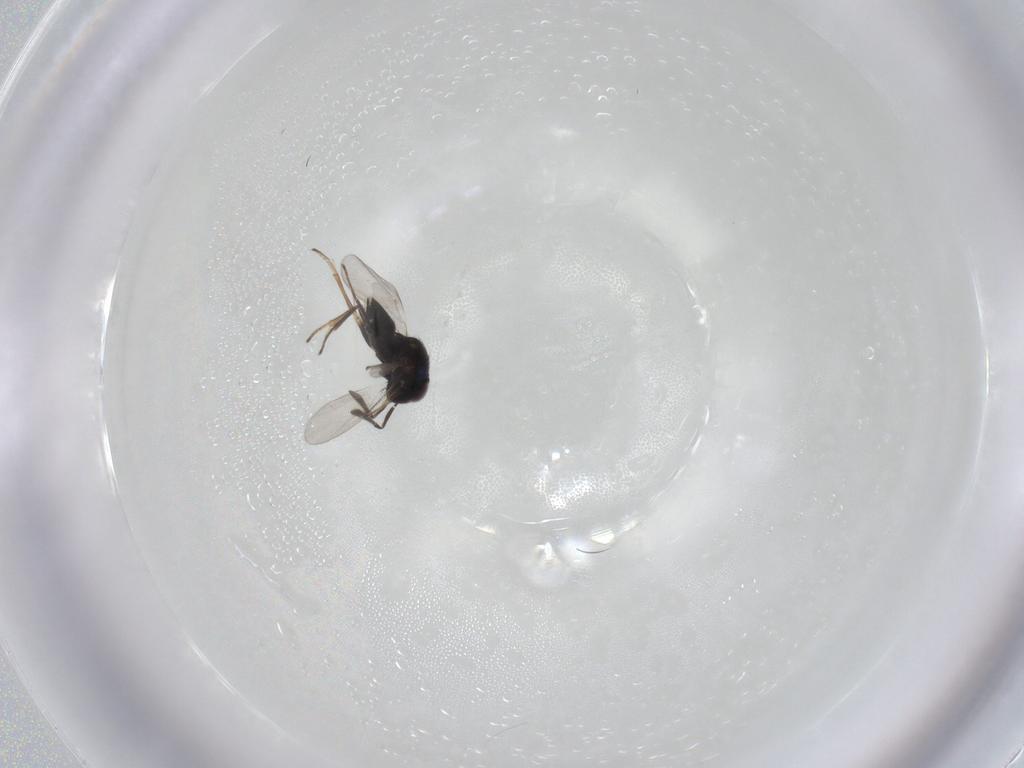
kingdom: Animalia
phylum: Arthropoda
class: Insecta
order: Hymenoptera
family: Encyrtidae
